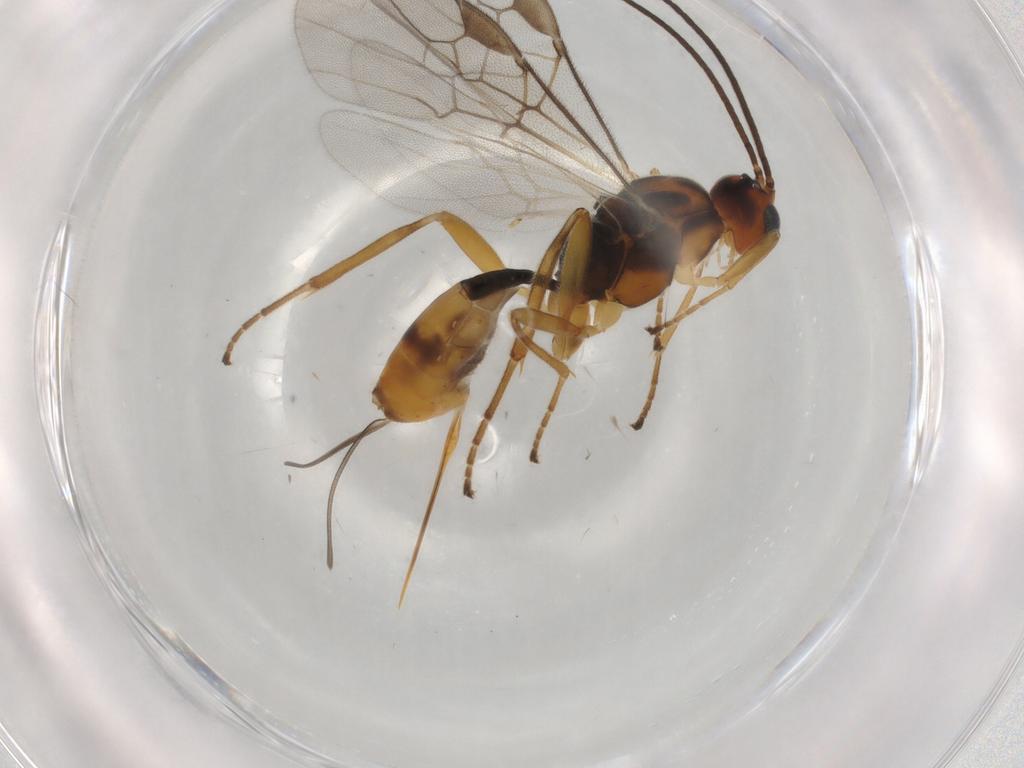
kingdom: Animalia
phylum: Arthropoda
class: Insecta
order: Hymenoptera
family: Braconidae
